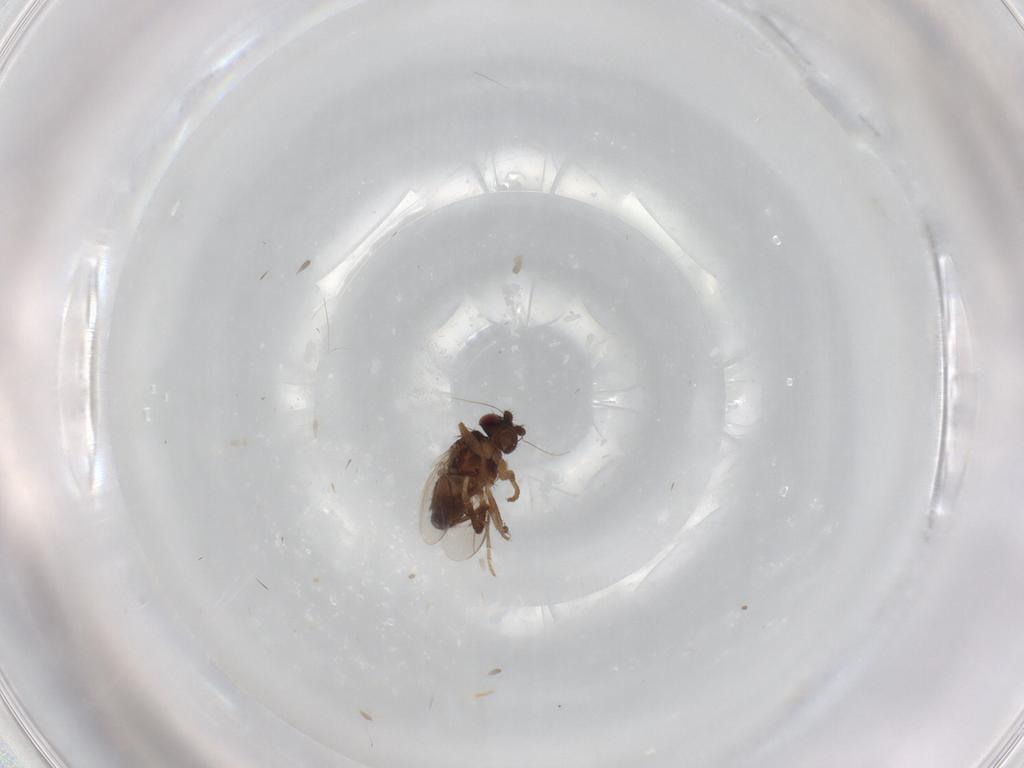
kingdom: Animalia
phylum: Arthropoda
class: Insecta
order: Diptera
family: Sphaeroceridae
